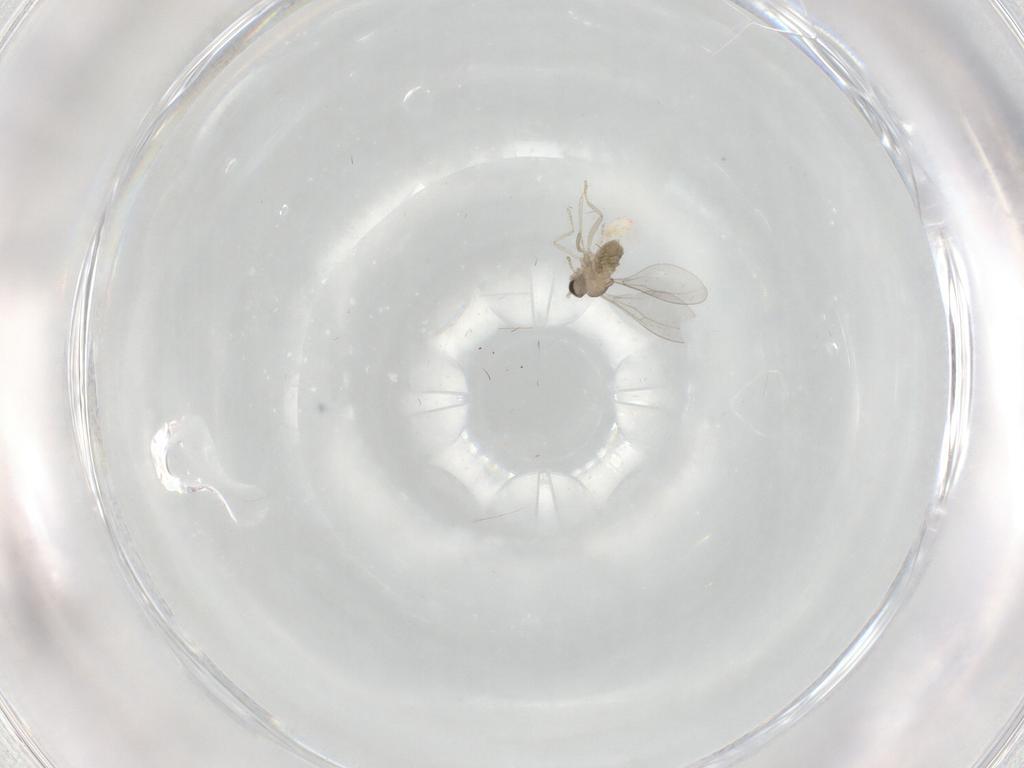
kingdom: Animalia
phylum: Arthropoda
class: Insecta
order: Diptera
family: Cecidomyiidae
